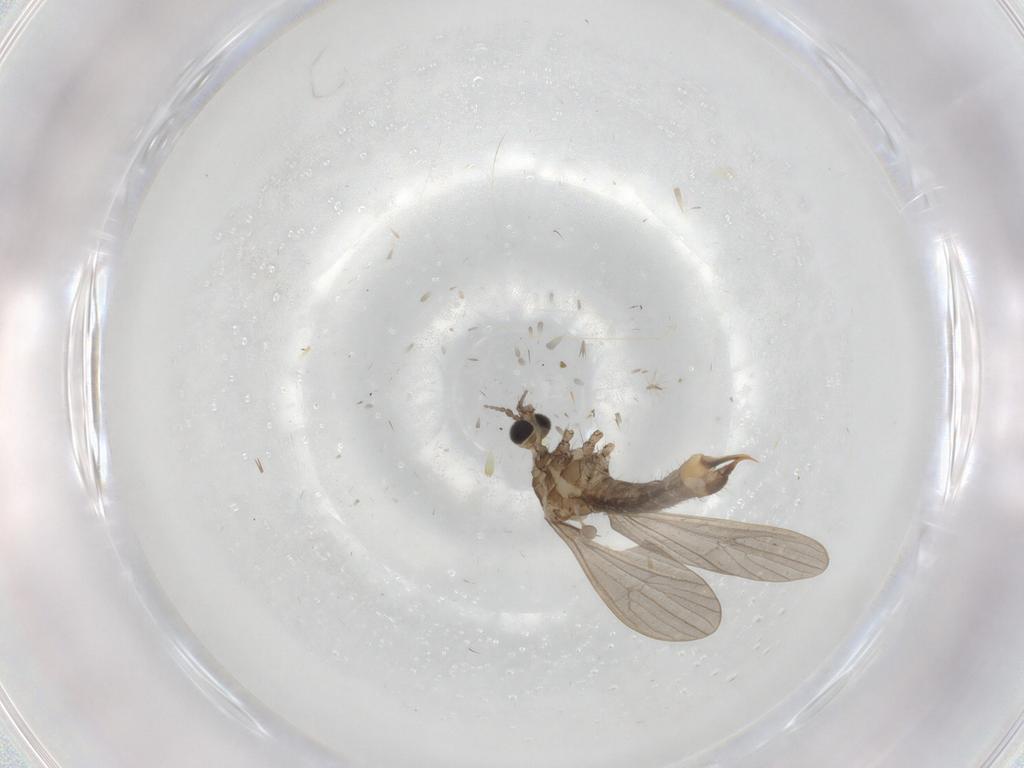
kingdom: Animalia
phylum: Arthropoda
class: Insecta
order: Diptera
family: Limoniidae
